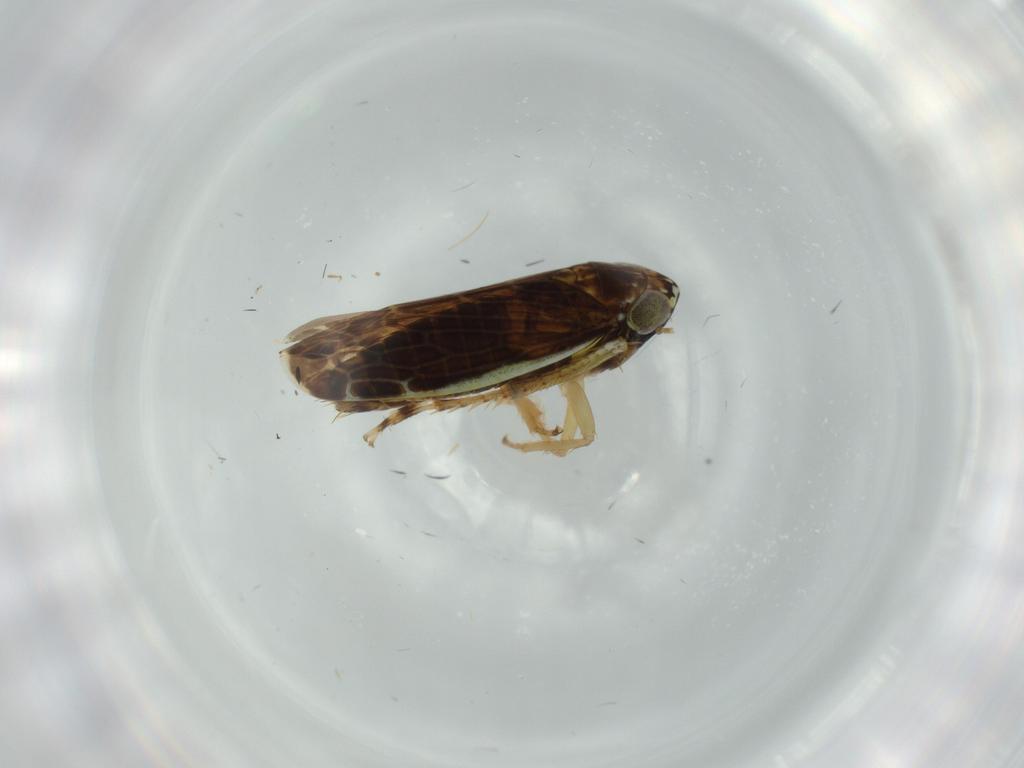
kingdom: Animalia
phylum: Arthropoda
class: Insecta
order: Hemiptera
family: Cicadellidae
